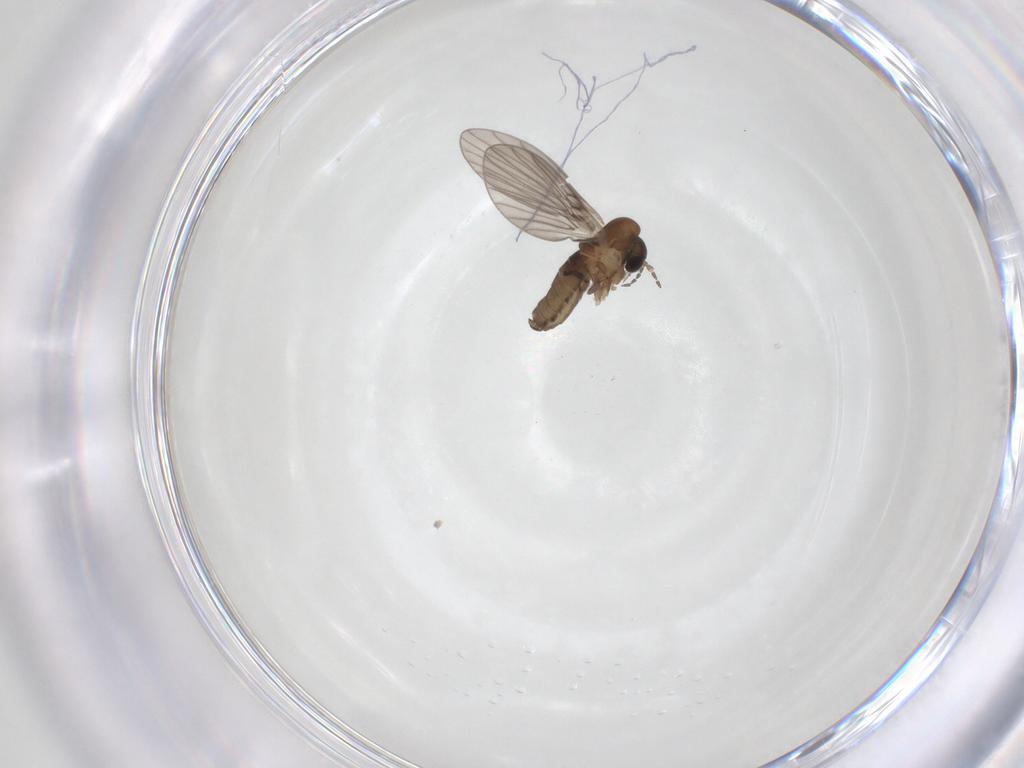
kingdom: Animalia
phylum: Arthropoda
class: Insecta
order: Diptera
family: Psychodidae
